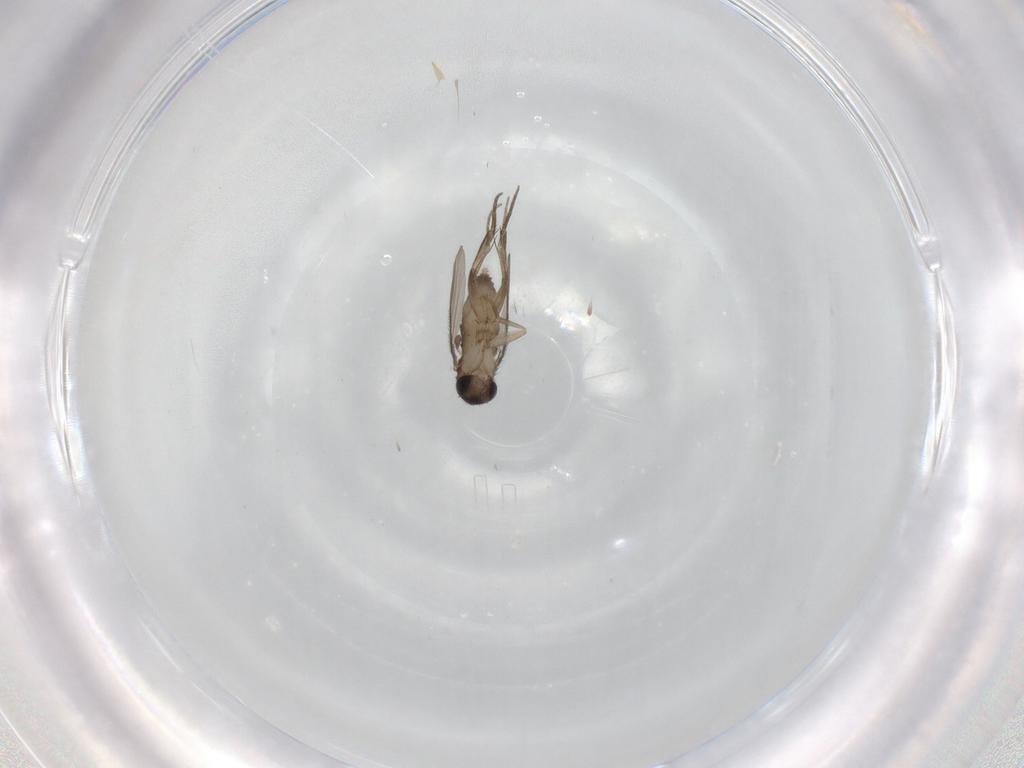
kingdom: Animalia
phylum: Arthropoda
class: Insecta
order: Diptera
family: Phoridae
